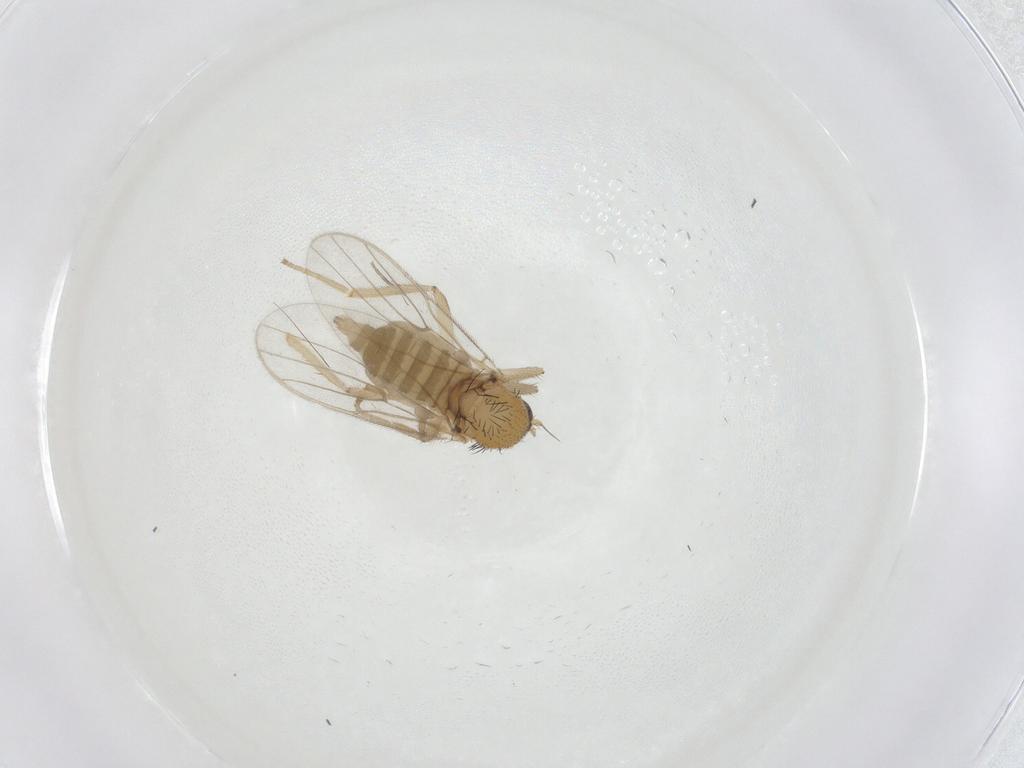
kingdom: Animalia
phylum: Arthropoda
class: Insecta
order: Diptera
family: Hybotidae
